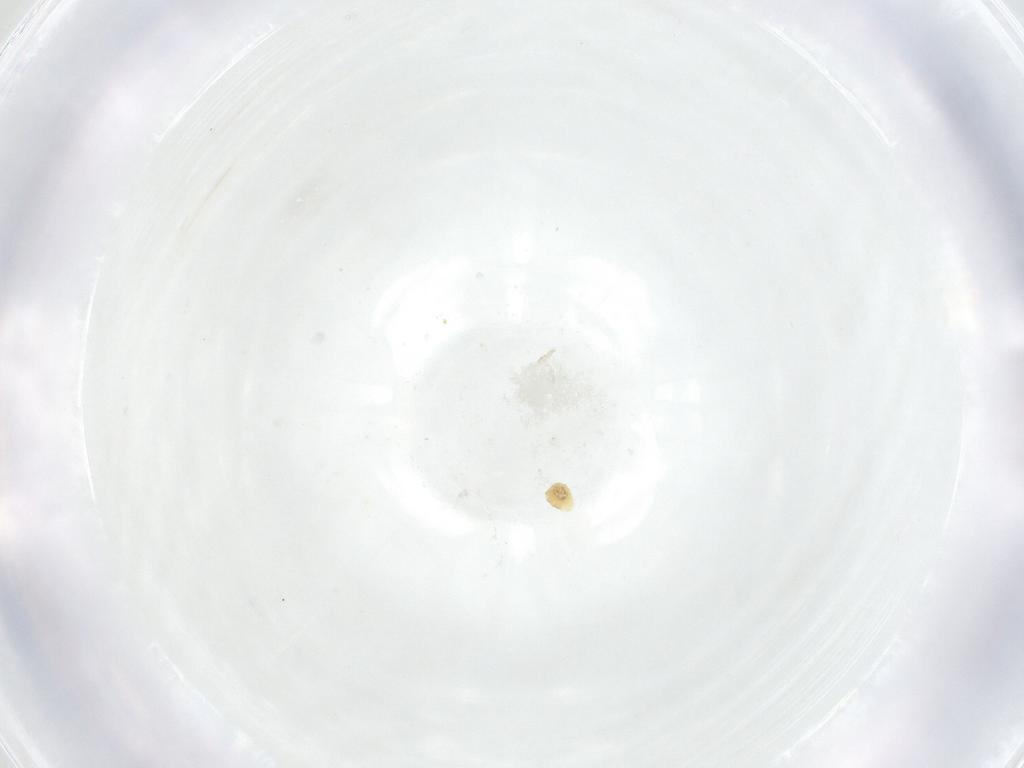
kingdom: Animalia
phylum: Arthropoda
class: Insecta
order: Diptera
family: Fergusoninidae
